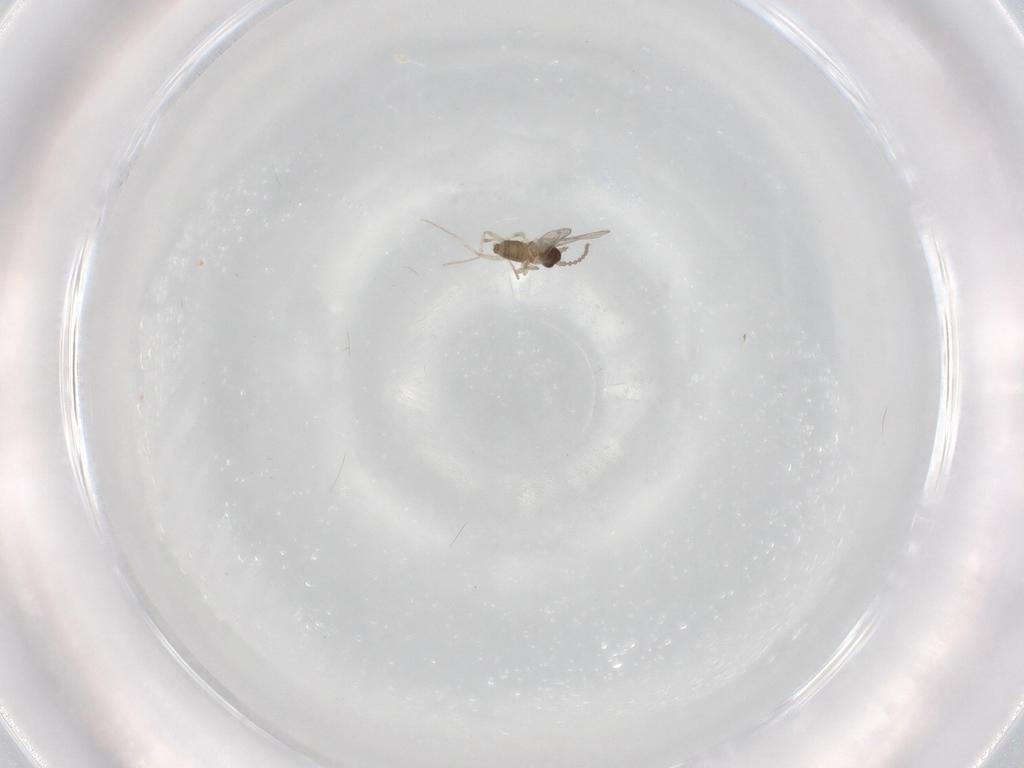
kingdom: Animalia
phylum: Arthropoda
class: Insecta
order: Diptera
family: Cecidomyiidae
